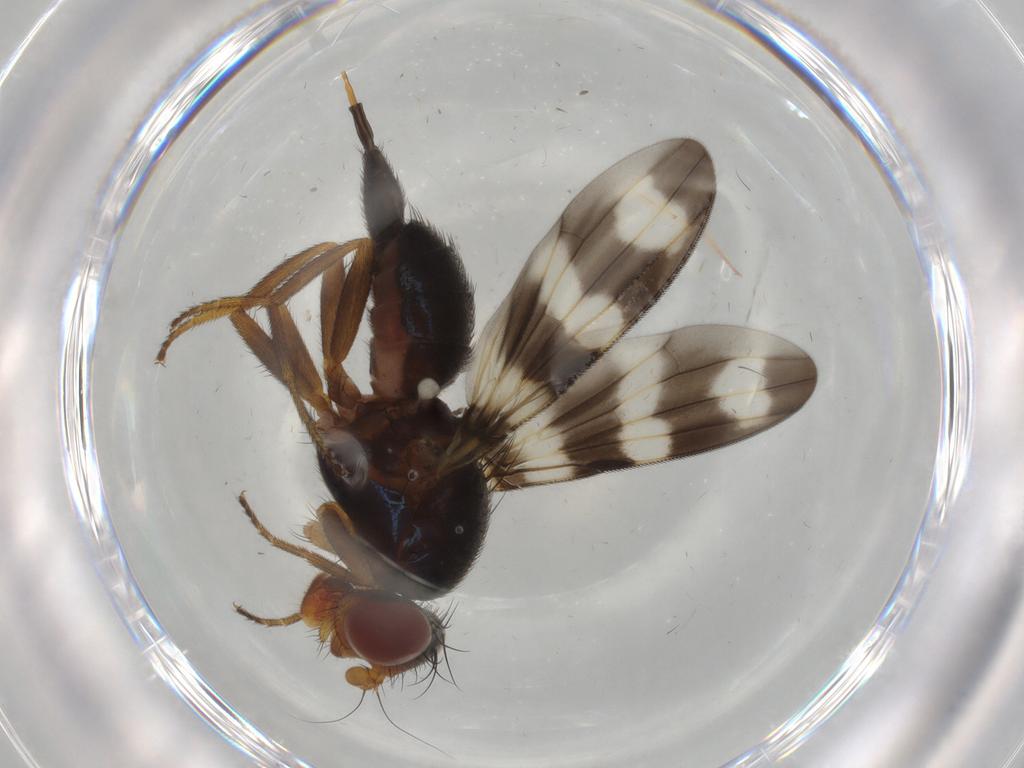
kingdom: Animalia
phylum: Arthropoda
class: Insecta
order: Diptera
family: Ulidiidae
